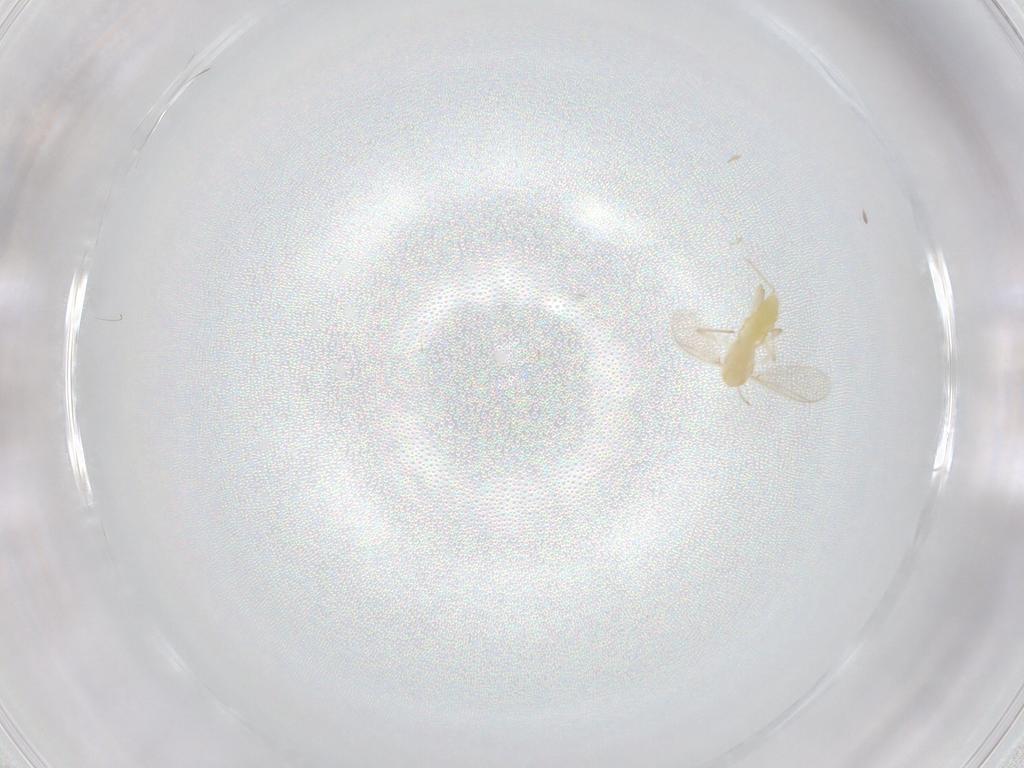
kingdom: Animalia
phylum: Arthropoda
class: Insecta
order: Diptera
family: Chironomidae
